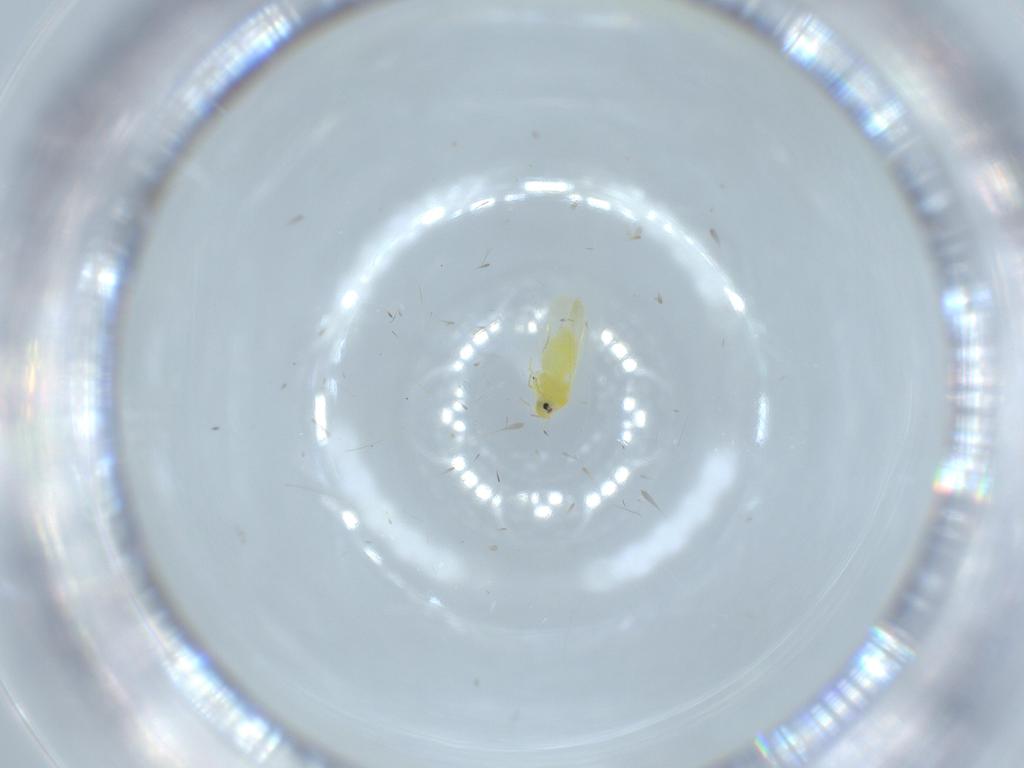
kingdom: Animalia
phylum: Arthropoda
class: Insecta
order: Hemiptera
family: Aleyrodidae
